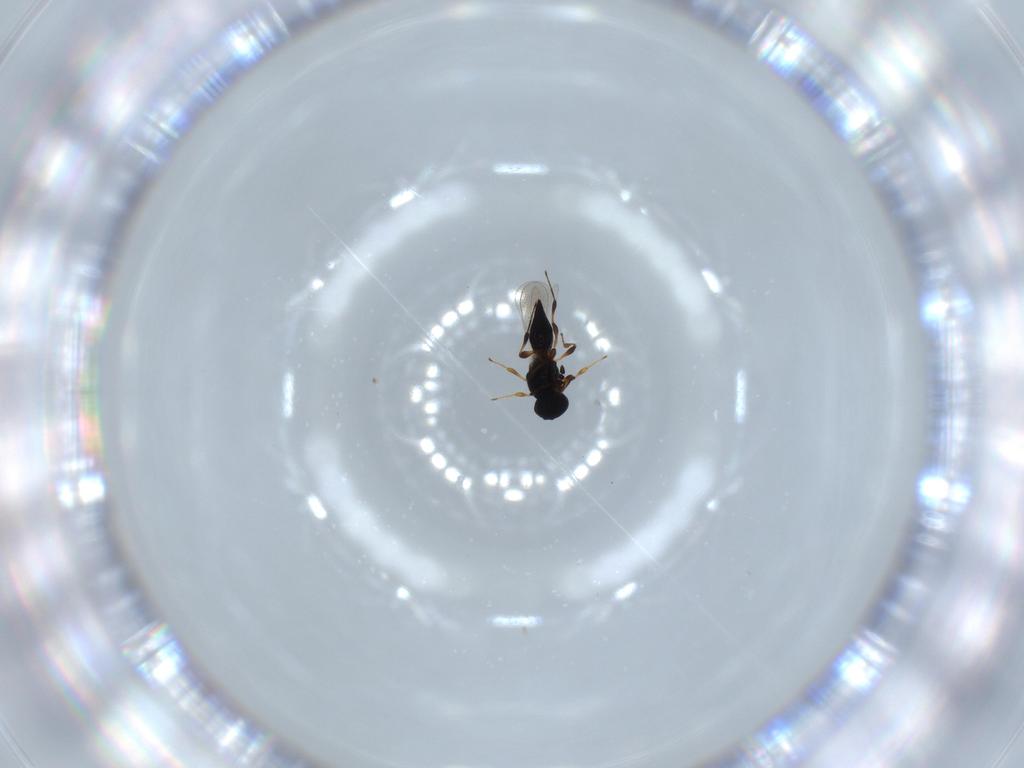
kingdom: Animalia
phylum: Arthropoda
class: Insecta
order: Hymenoptera
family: Platygastridae
